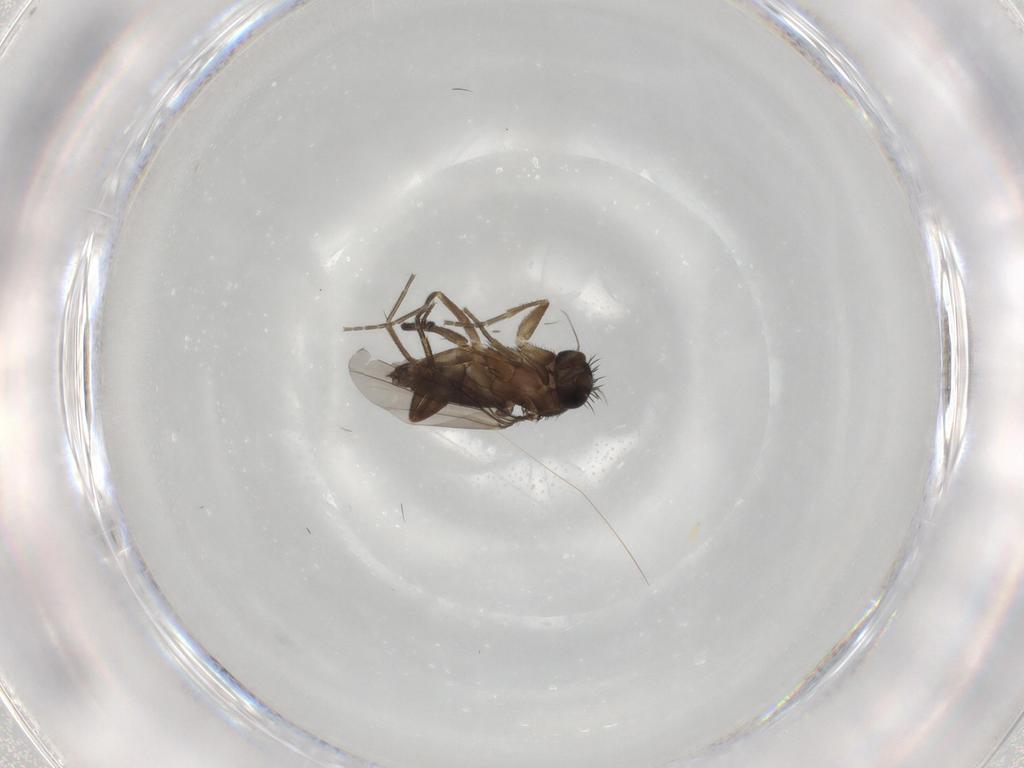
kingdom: Animalia
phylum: Arthropoda
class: Insecta
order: Diptera
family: Phoridae
